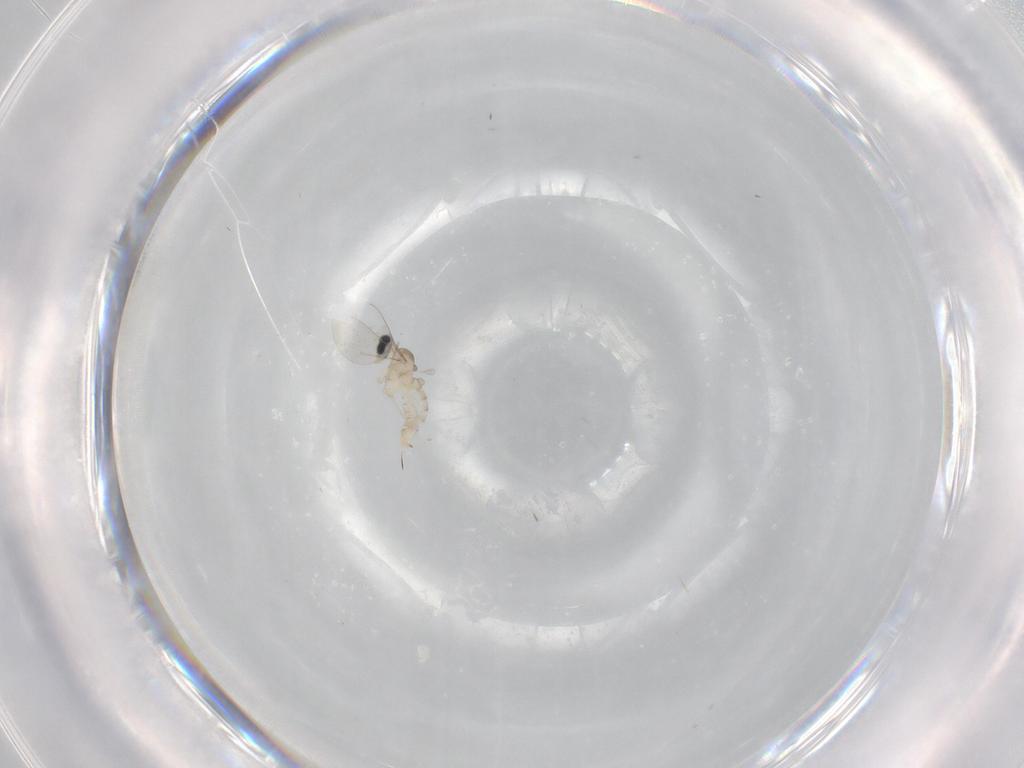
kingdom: Animalia
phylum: Arthropoda
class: Insecta
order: Diptera
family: Cecidomyiidae
